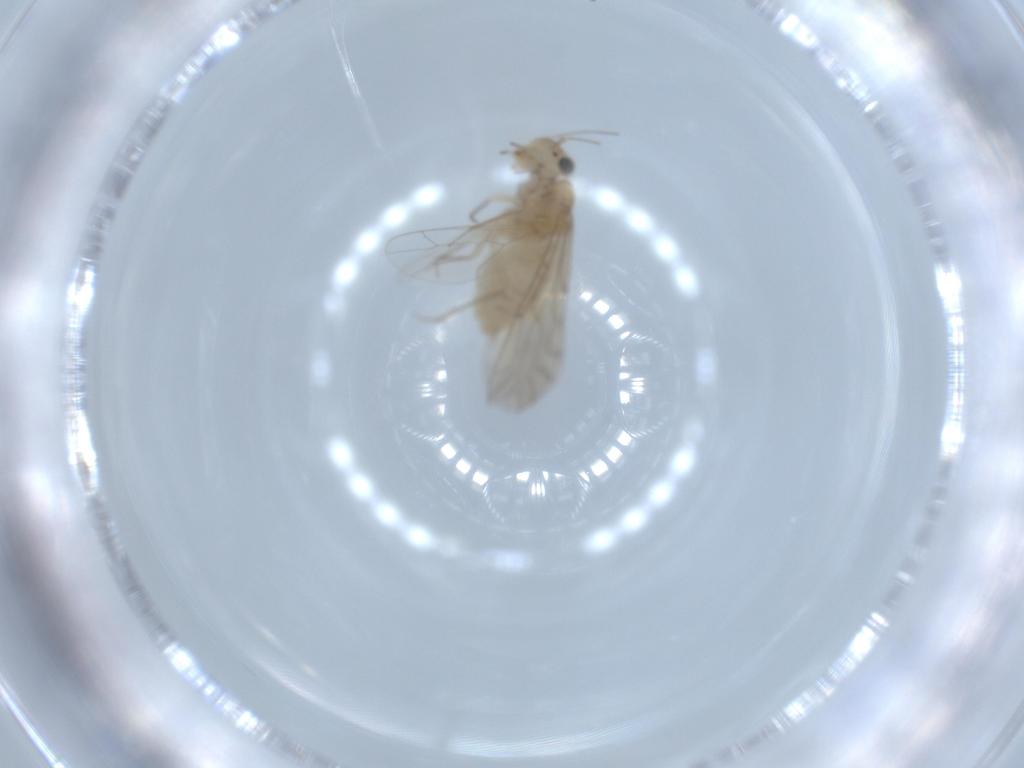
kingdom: Animalia
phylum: Arthropoda
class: Insecta
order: Psocodea
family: Lachesillidae
